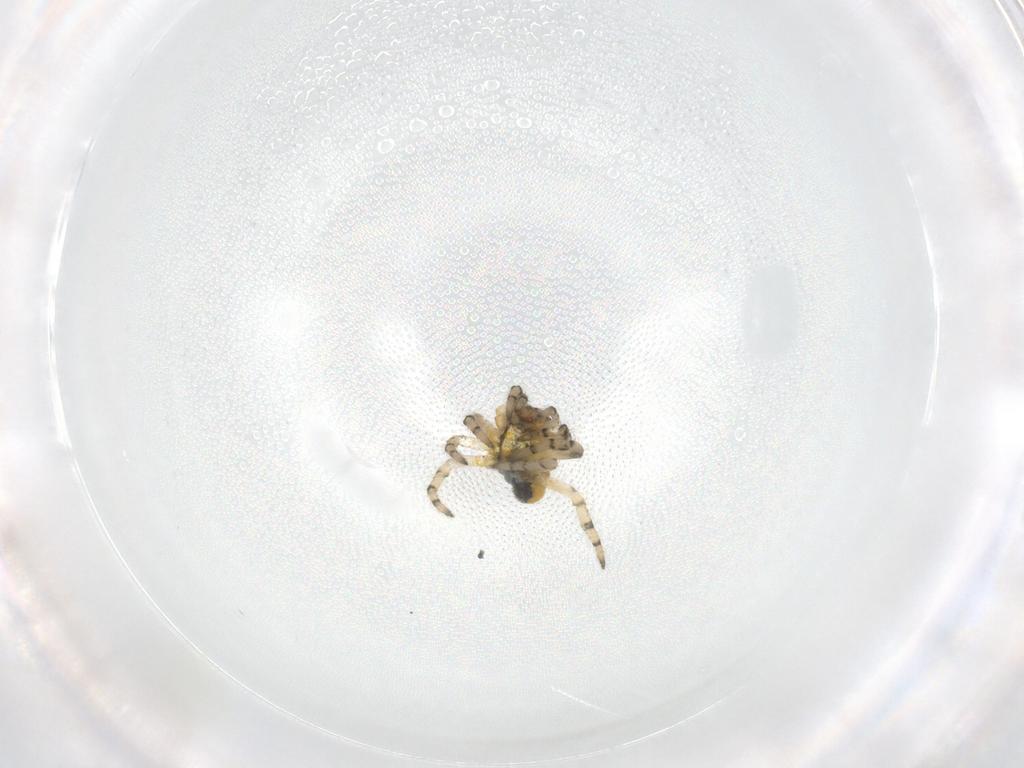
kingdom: Animalia
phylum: Arthropoda
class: Arachnida
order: Araneae
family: Araneidae
